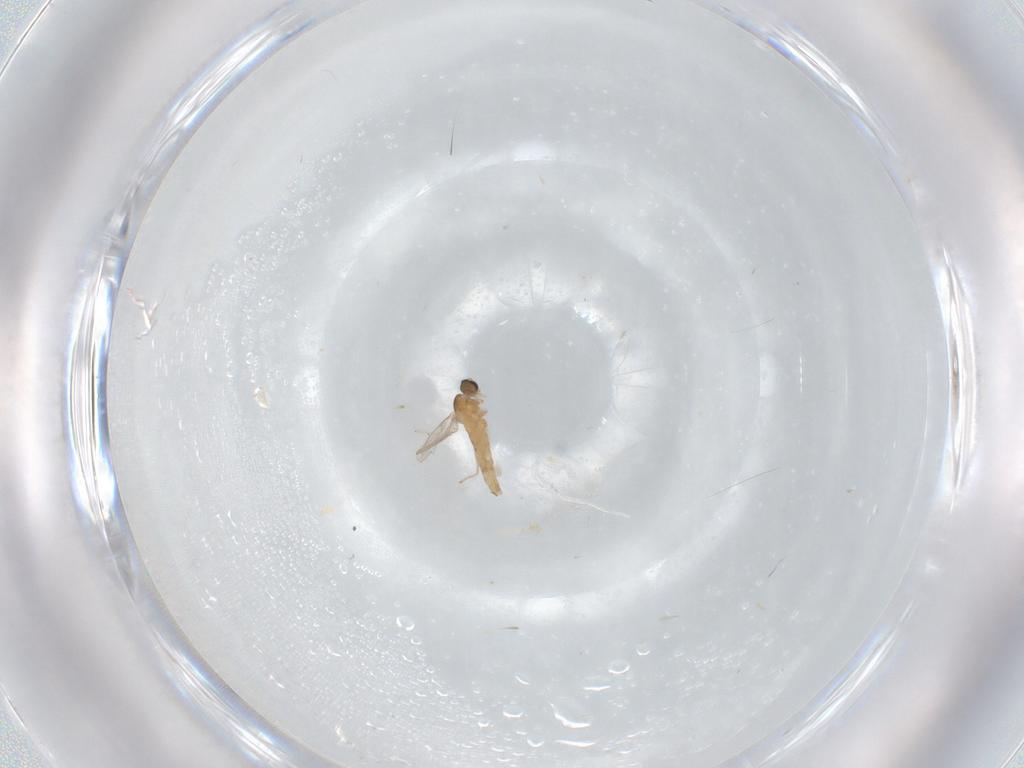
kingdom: Animalia
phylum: Arthropoda
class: Insecta
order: Diptera
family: Cecidomyiidae
